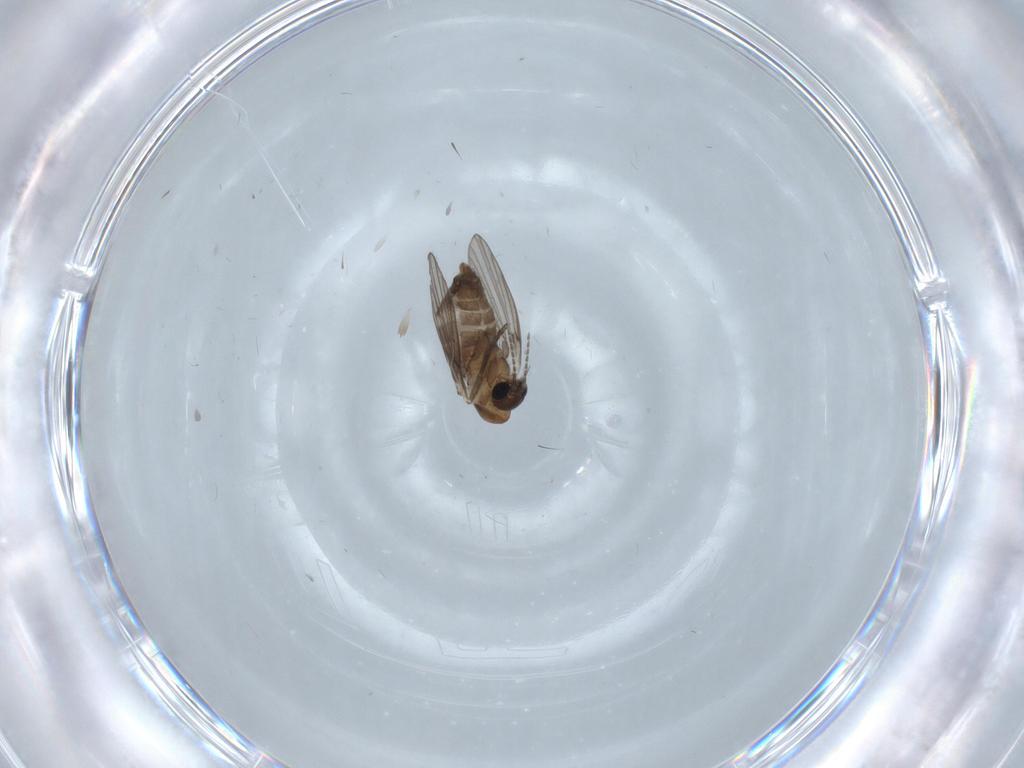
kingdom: Animalia
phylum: Arthropoda
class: Insecta
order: Diptera
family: Psychodidae
